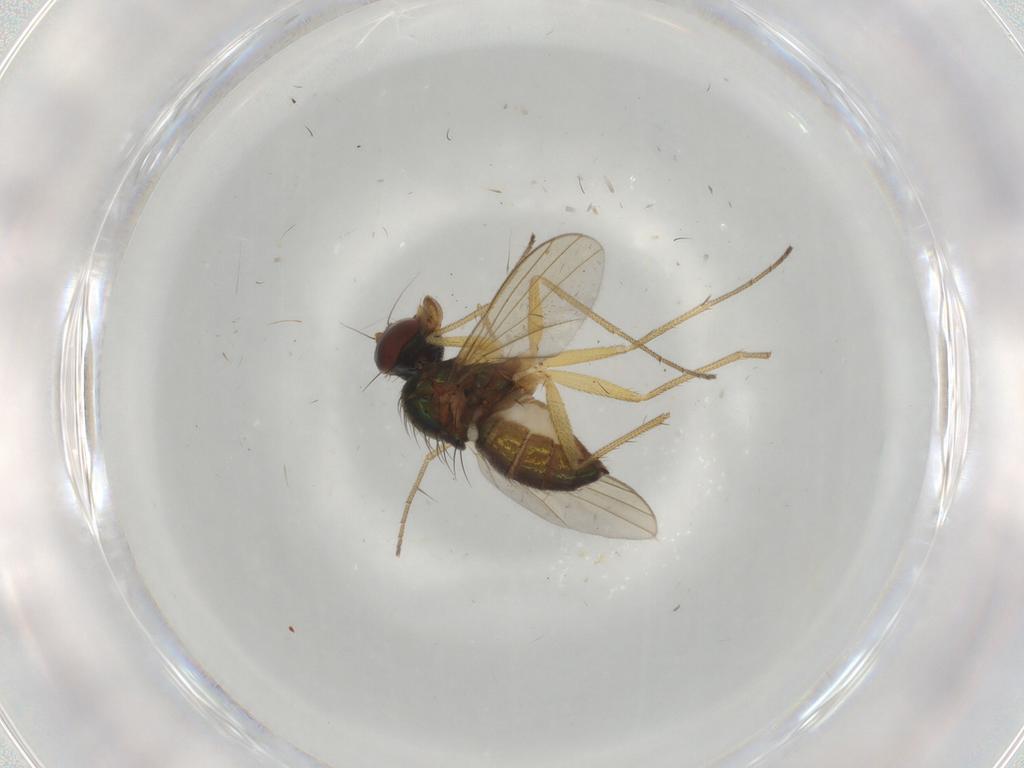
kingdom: Animalia
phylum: Arthropoda
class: Insecta
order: Diptera
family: Dolichopodidae
